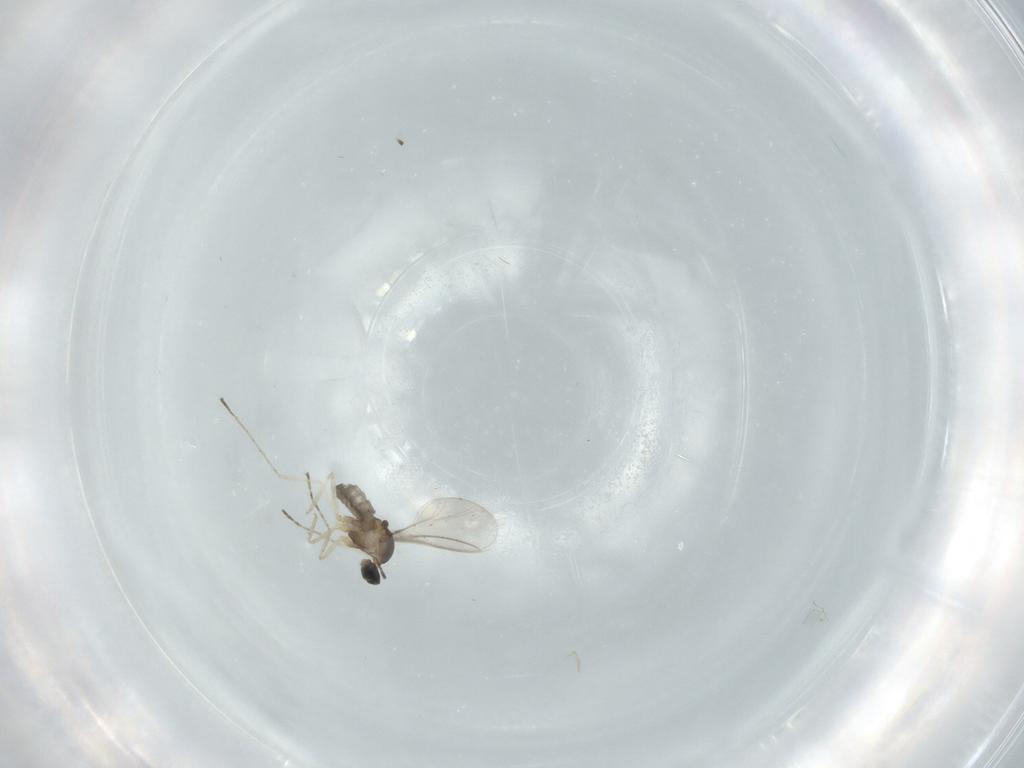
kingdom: Animalia
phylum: Arthropoda
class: Insecta
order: Diptera
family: Sciaridae
